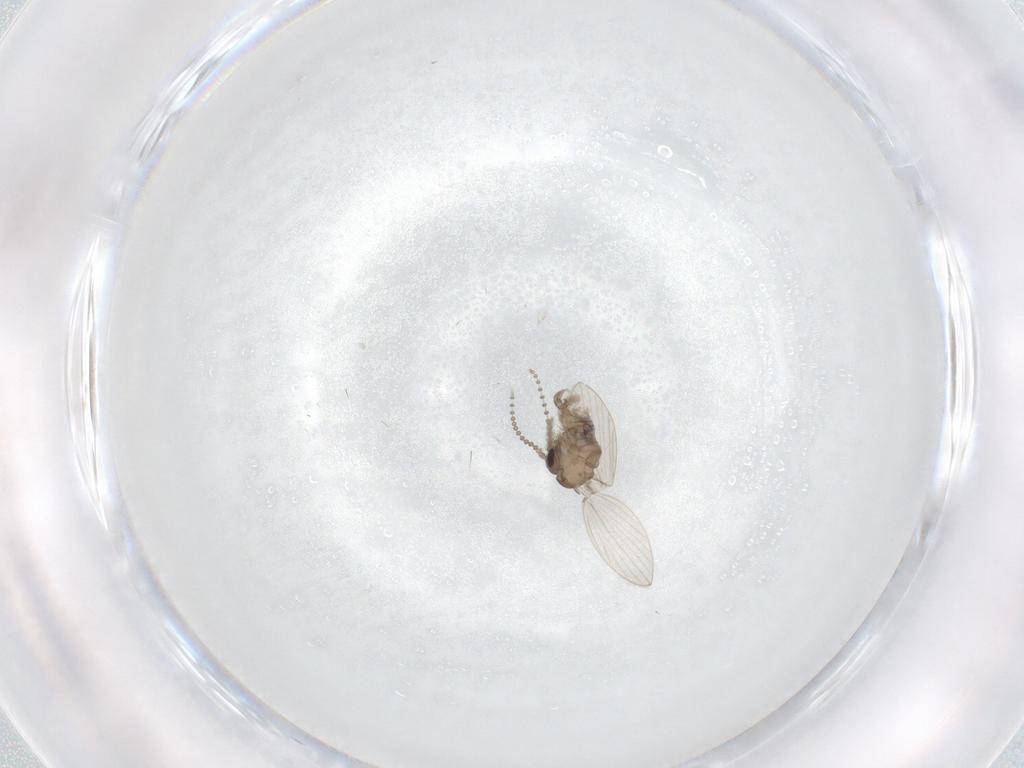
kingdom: Animalia
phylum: Arthropoda
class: Insecta
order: Diptera
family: Psychodidae
